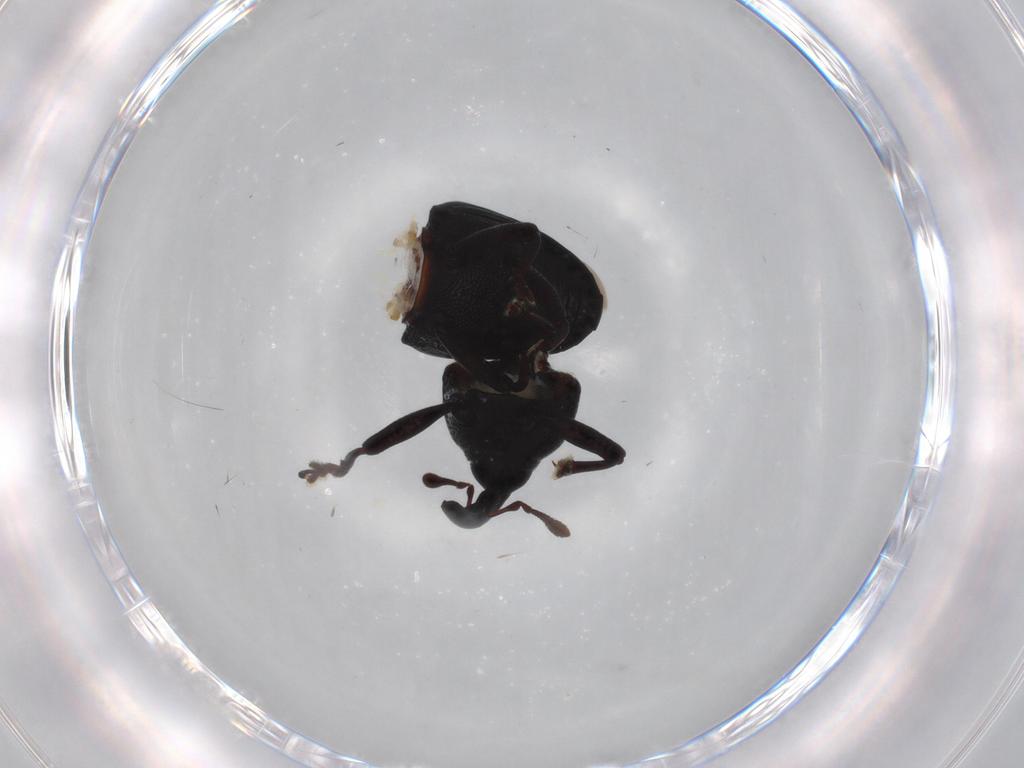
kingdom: Animalia
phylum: Arthropoda
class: Insecta
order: Coleoptera
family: Curculionidae
